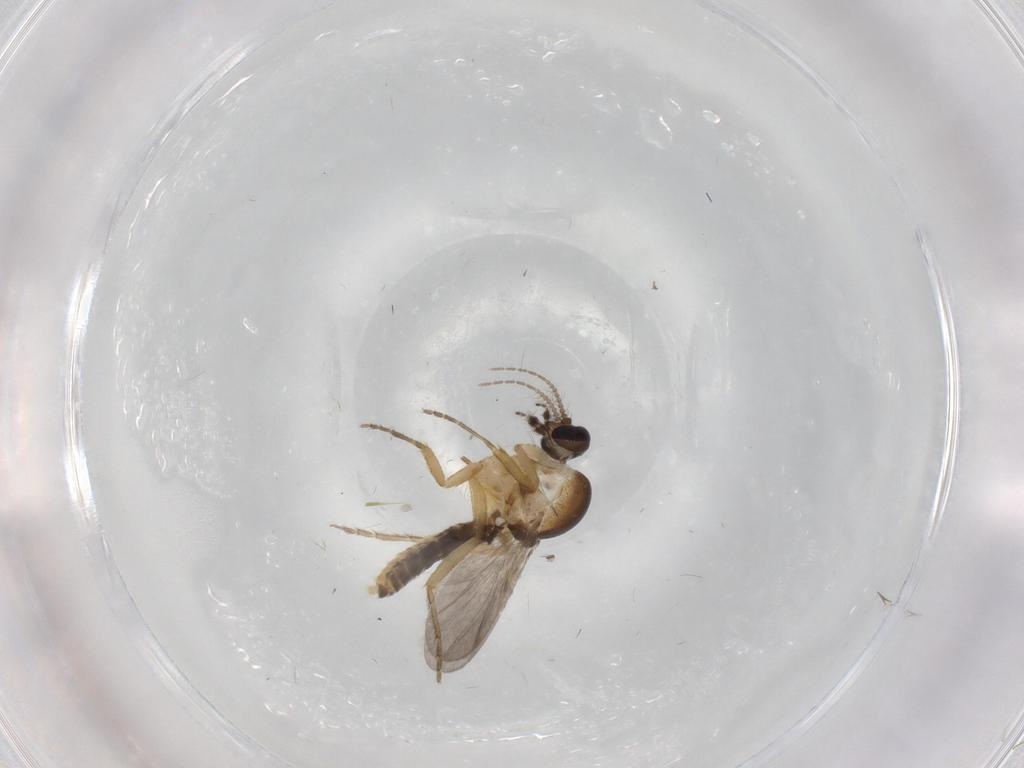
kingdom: Animalia
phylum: Arthropoda
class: Insecta
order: Diptera
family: Ceratopogonidae
